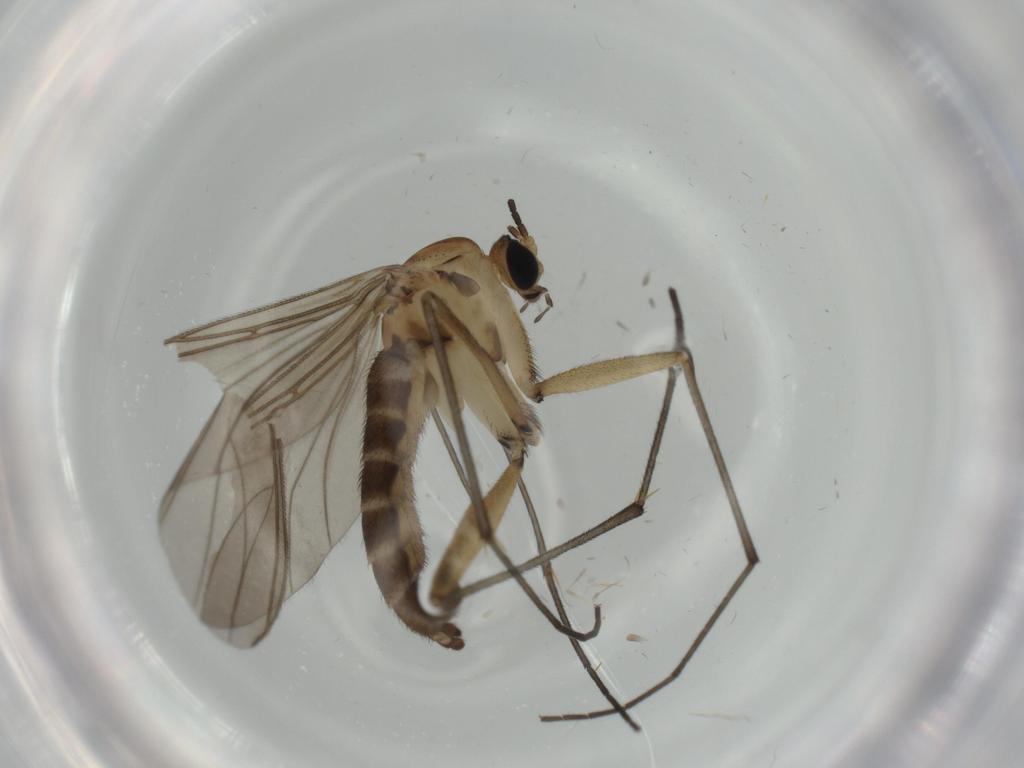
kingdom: Animalia
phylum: Arthropoda
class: Insecta
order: Diptera
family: Sciaridae
